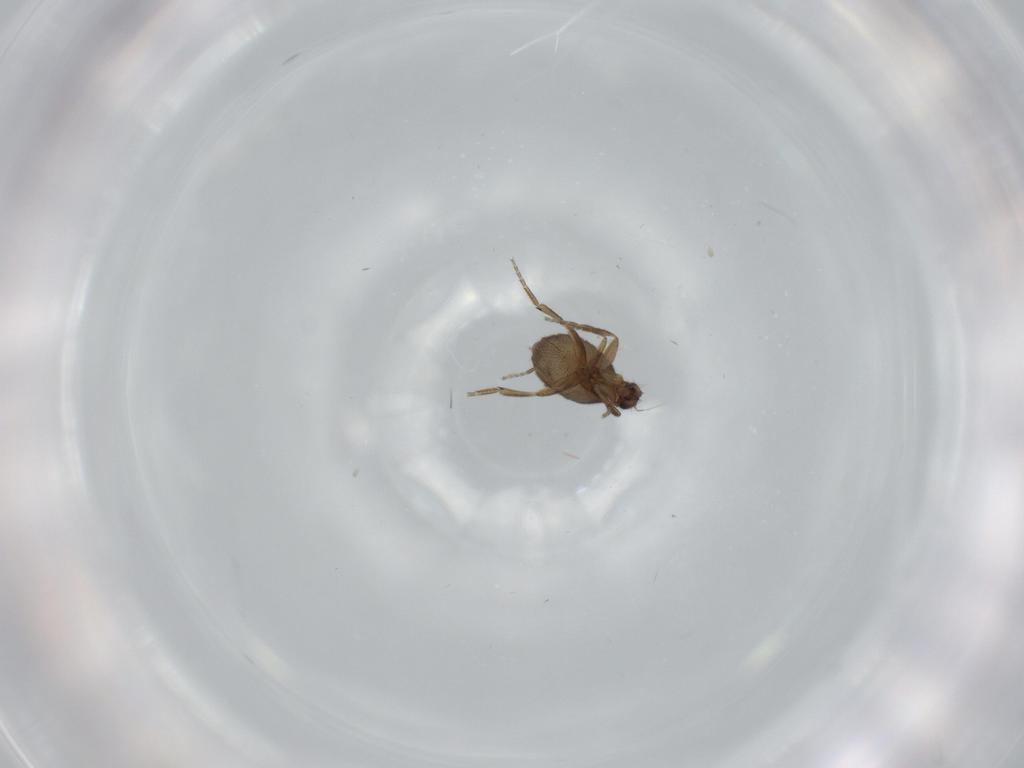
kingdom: Animalia
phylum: Arthropoda
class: Insecta
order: Diptera
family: Phoridae
